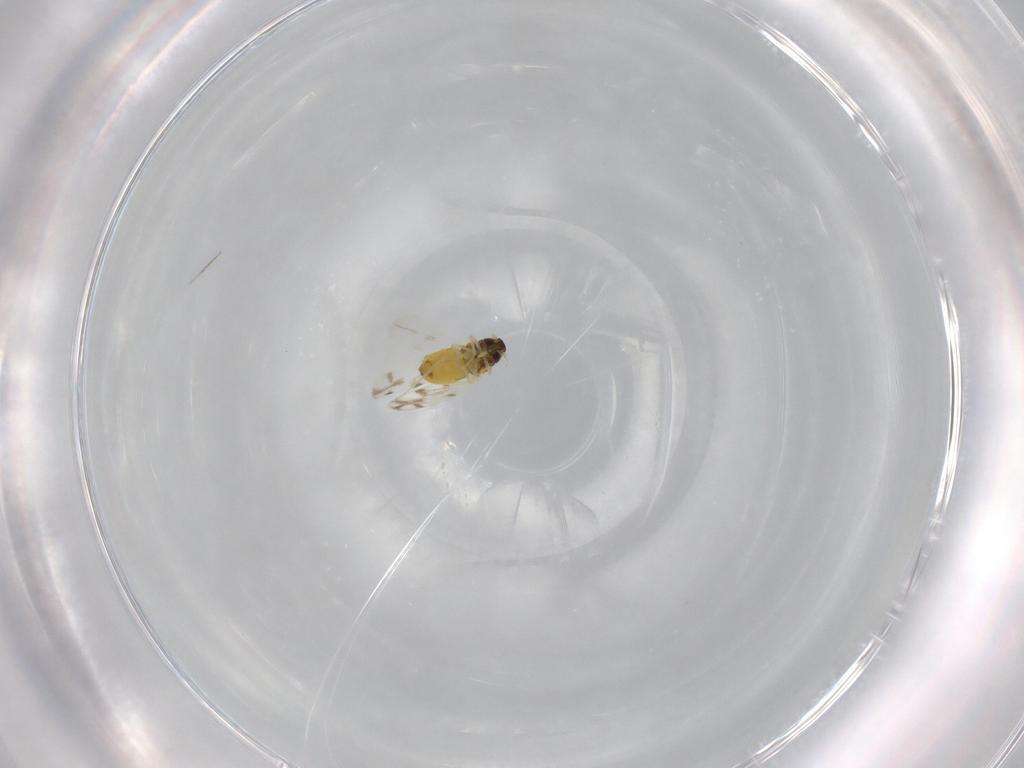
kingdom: Animalia
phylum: Arthropoda
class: Insecta
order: Hemiptera
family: Aleyrodidae
